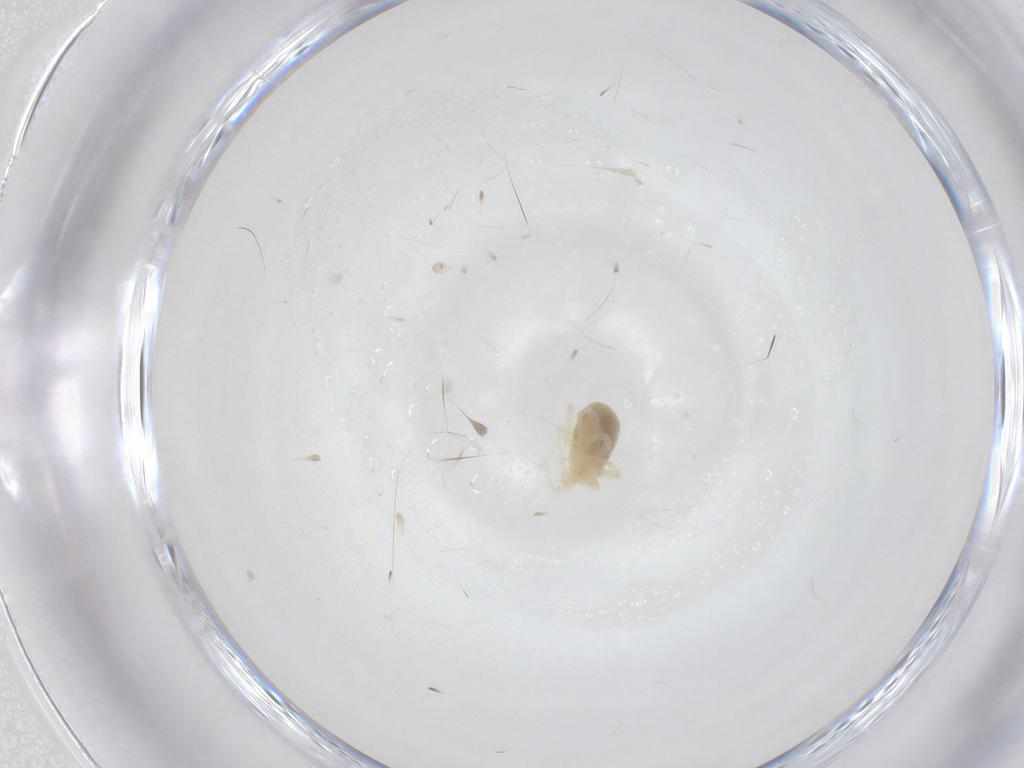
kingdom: Animalia
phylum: Arthropoda
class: Arachnida
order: Trombidiformes
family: Anystidae
